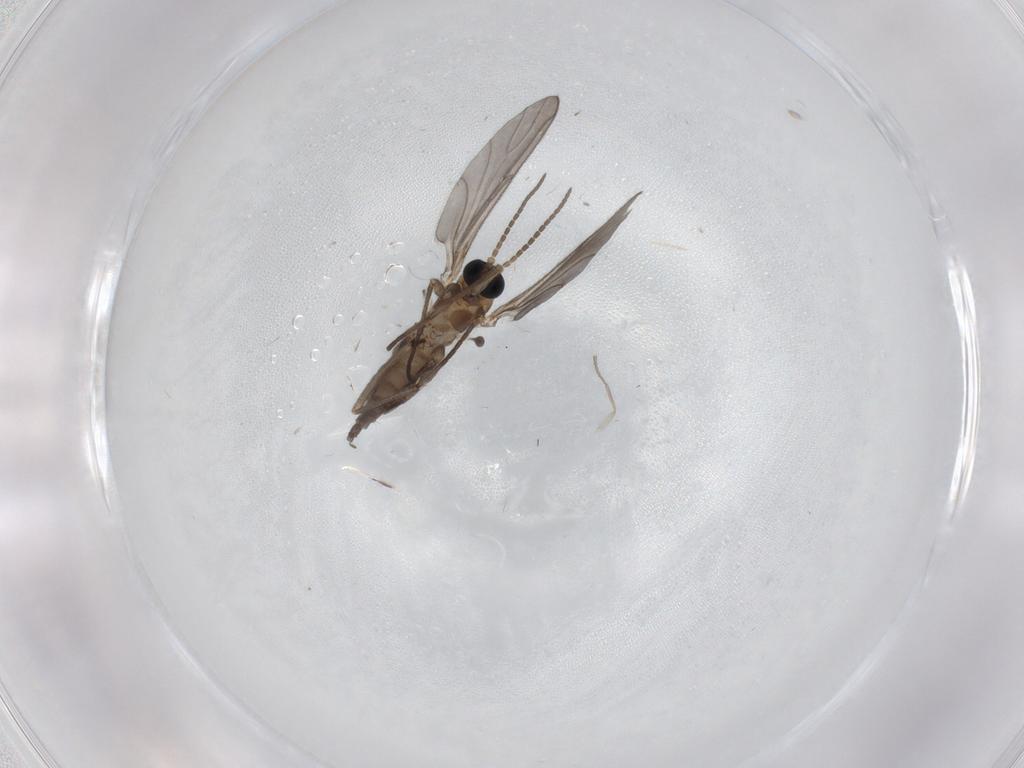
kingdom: Animalia
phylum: Arthropoda
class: Insecta
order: Diptera
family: Sciaridae
